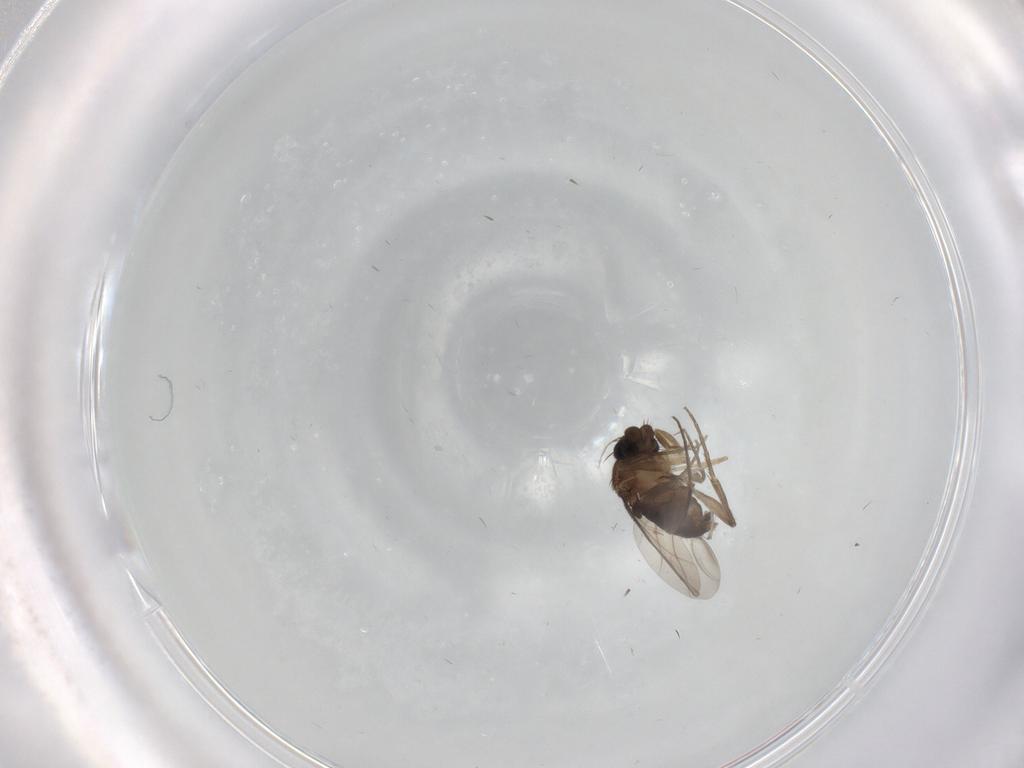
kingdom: Animalia
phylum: Arthropoda
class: Insecta
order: Diptera
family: Phoridae
